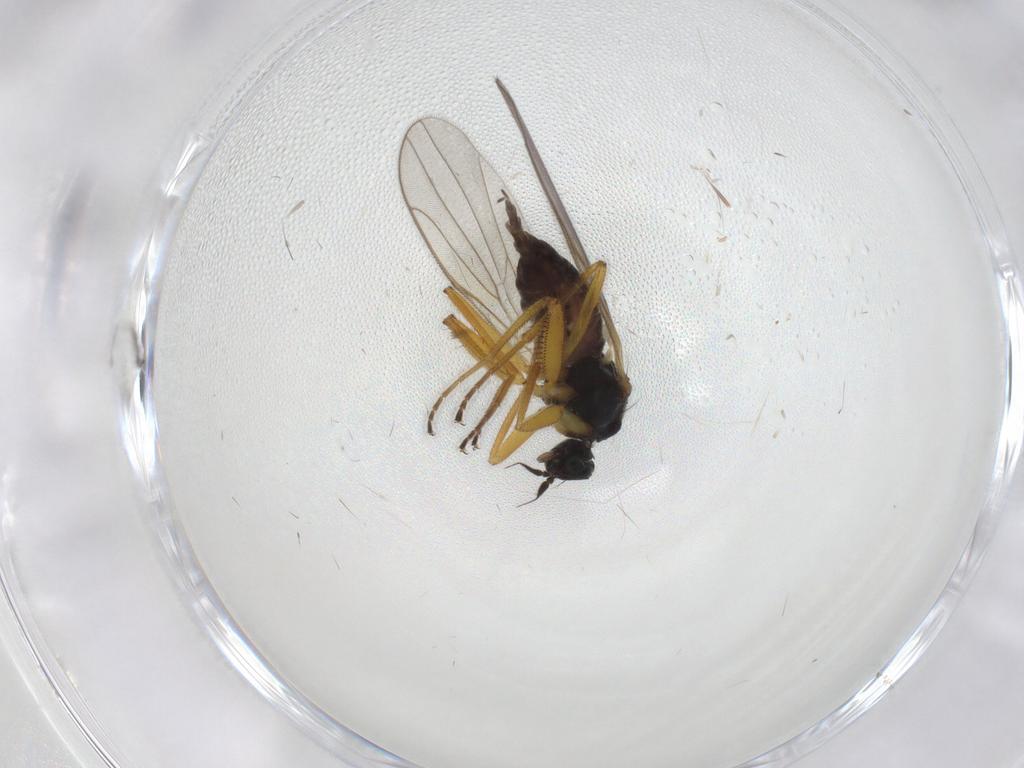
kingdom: Animalia
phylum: Arthropoda
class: Insecta
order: Diptera
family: Hybotidae
